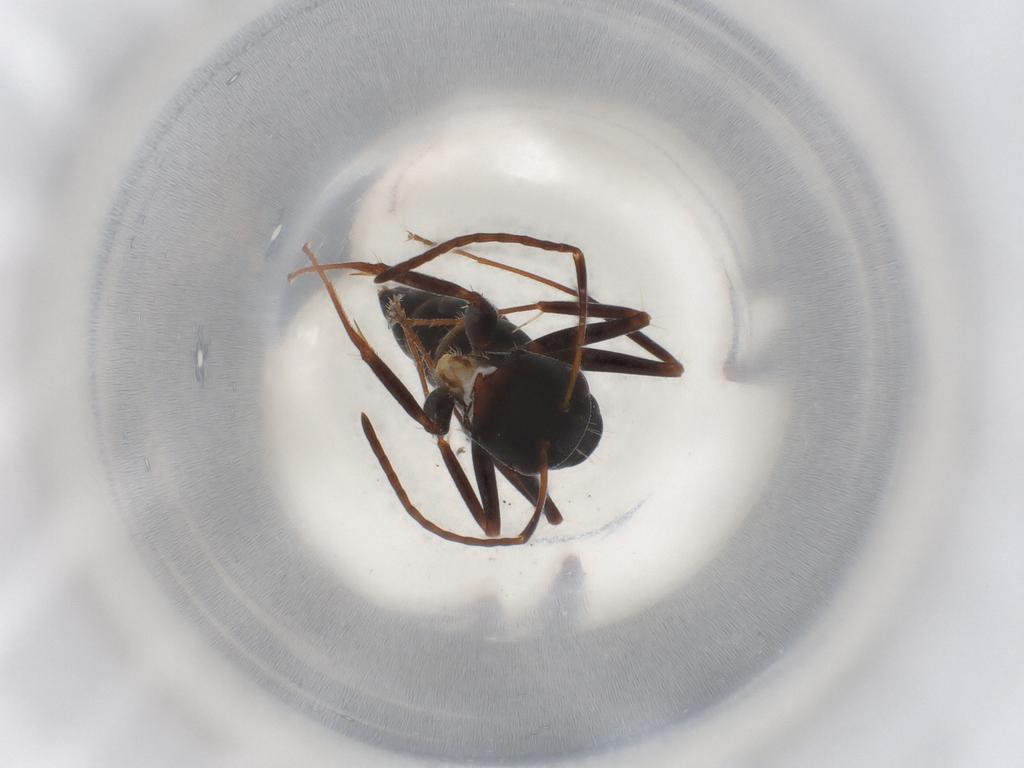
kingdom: Animalia
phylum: Arthropoda
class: Insecta
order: Hymenoptera
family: Formicidae
